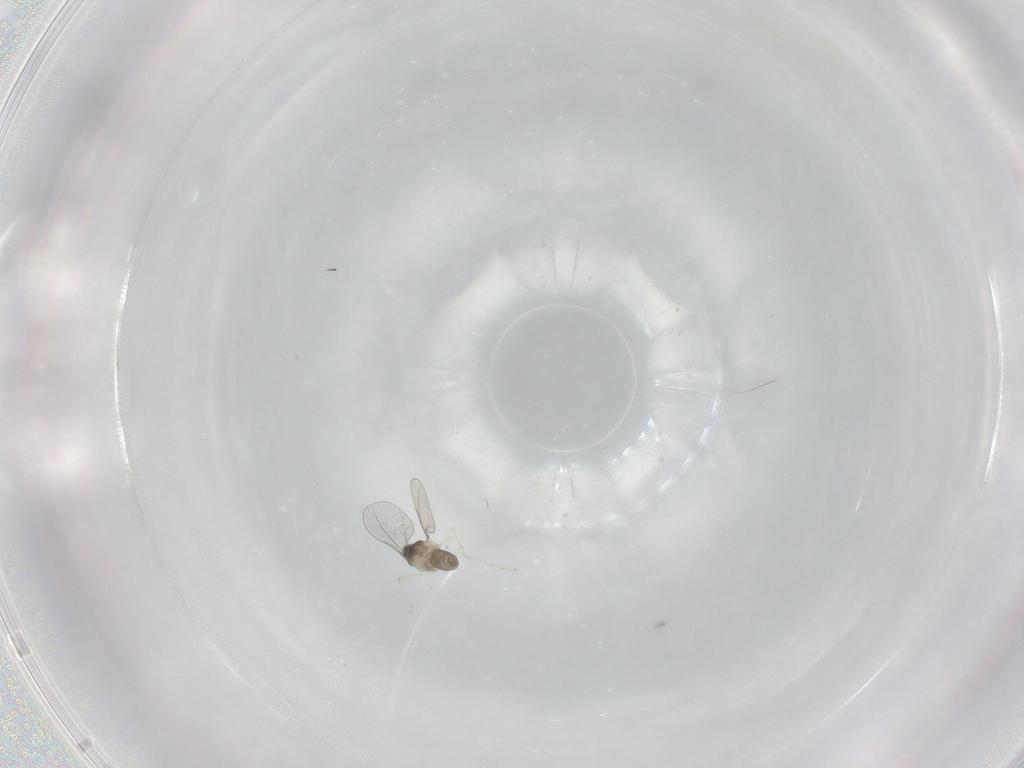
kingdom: Animalia
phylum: Arthropoda
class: Insecta
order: Diptera
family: Cecidomyiidae
